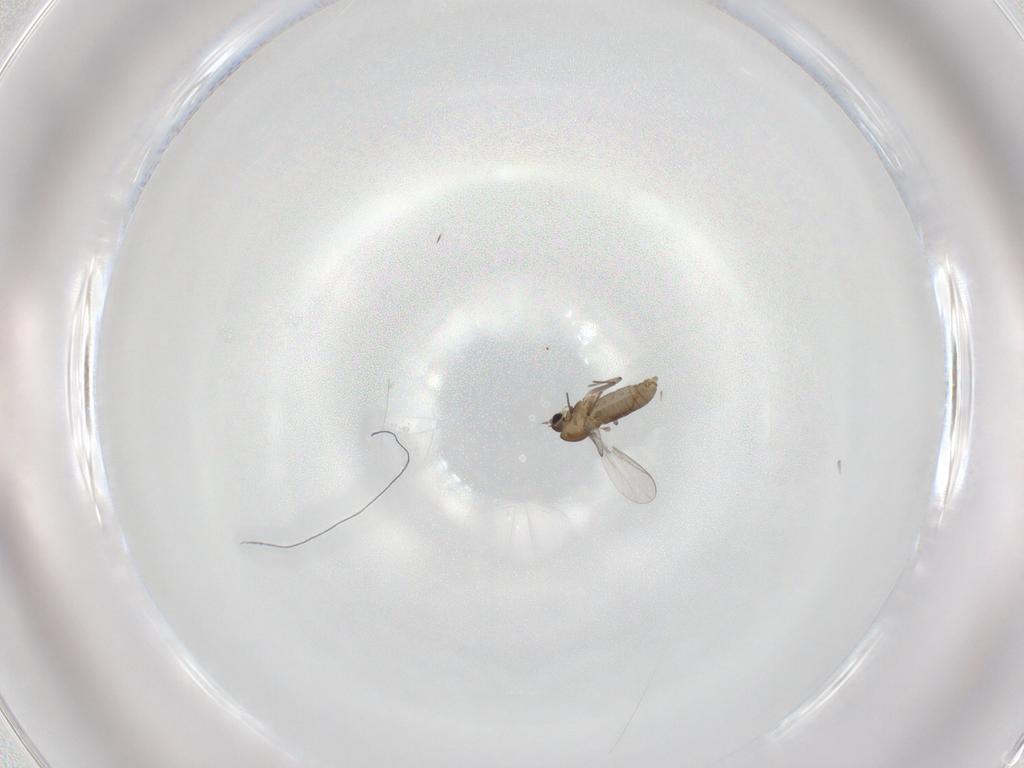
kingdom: Animalia
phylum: Arthropoda
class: Insecta
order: Diptera
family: Chironomidae
